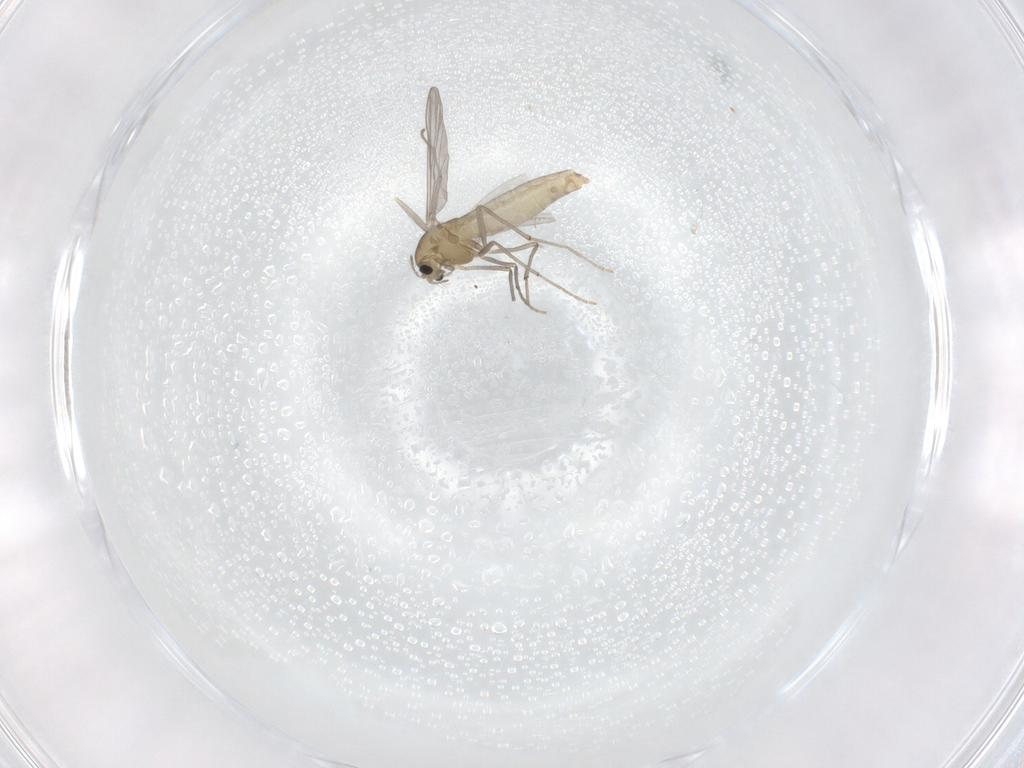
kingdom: Animalia
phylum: Arthropoda
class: Insecta
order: Diptera
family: Chironomidae
